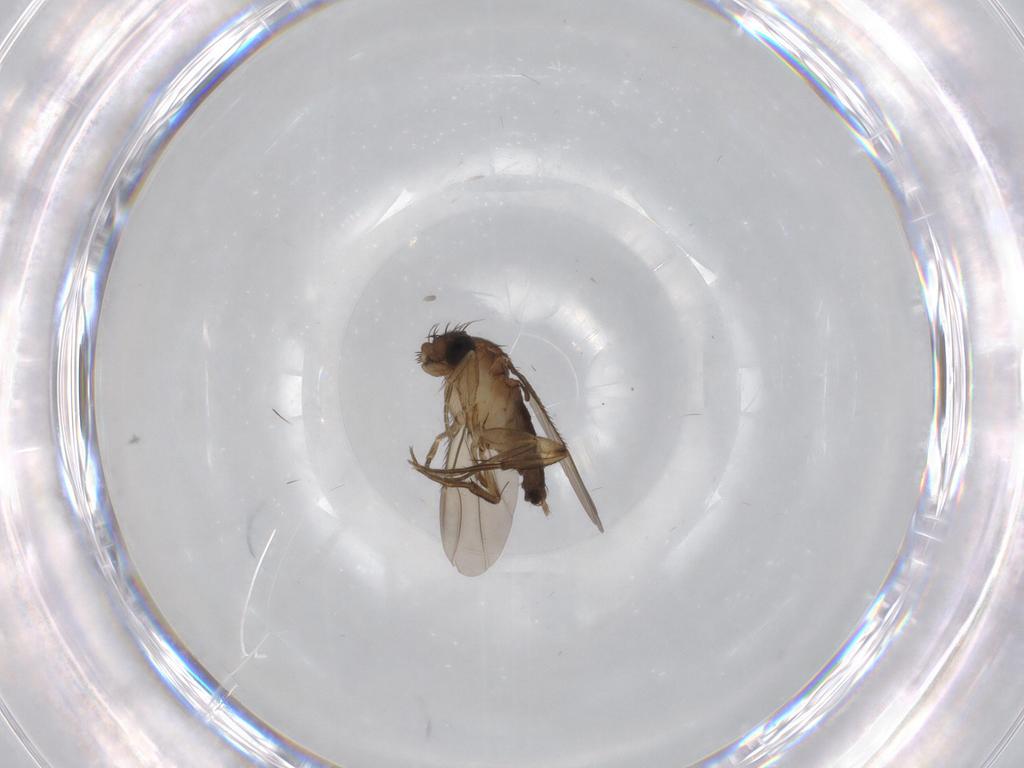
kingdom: Animalia
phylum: Arthropoda
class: Insecta
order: Diptera
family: Phoridae
